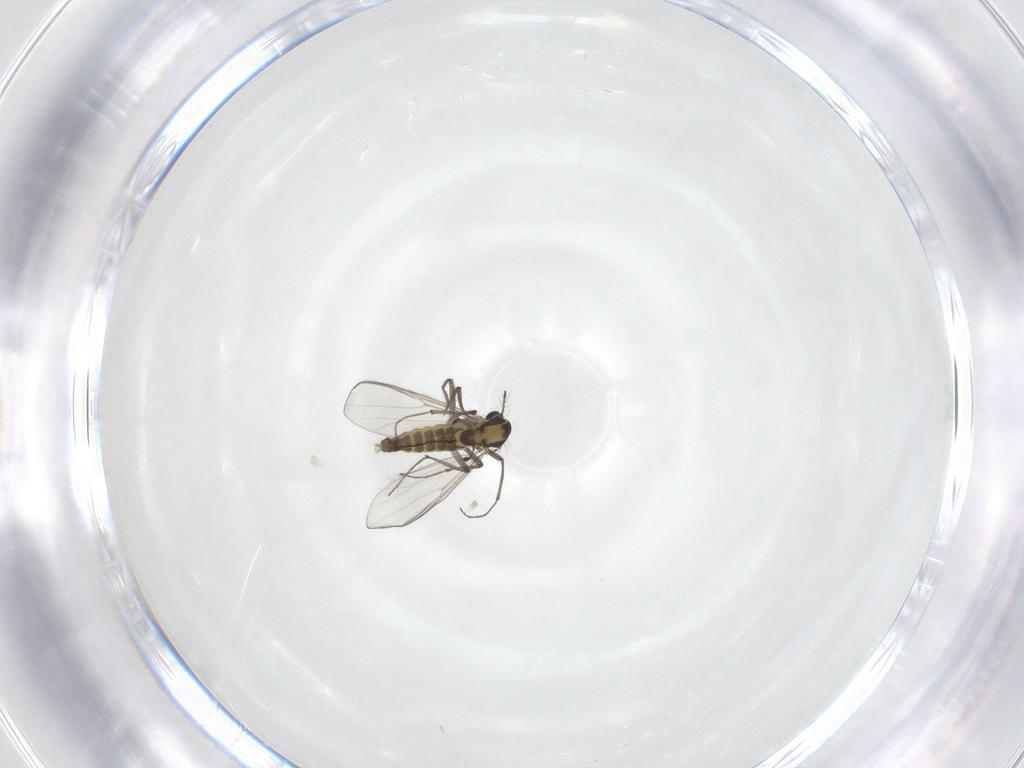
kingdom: Animalia
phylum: Arthropoda
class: Insecta
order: Diptera
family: Chironomidae
